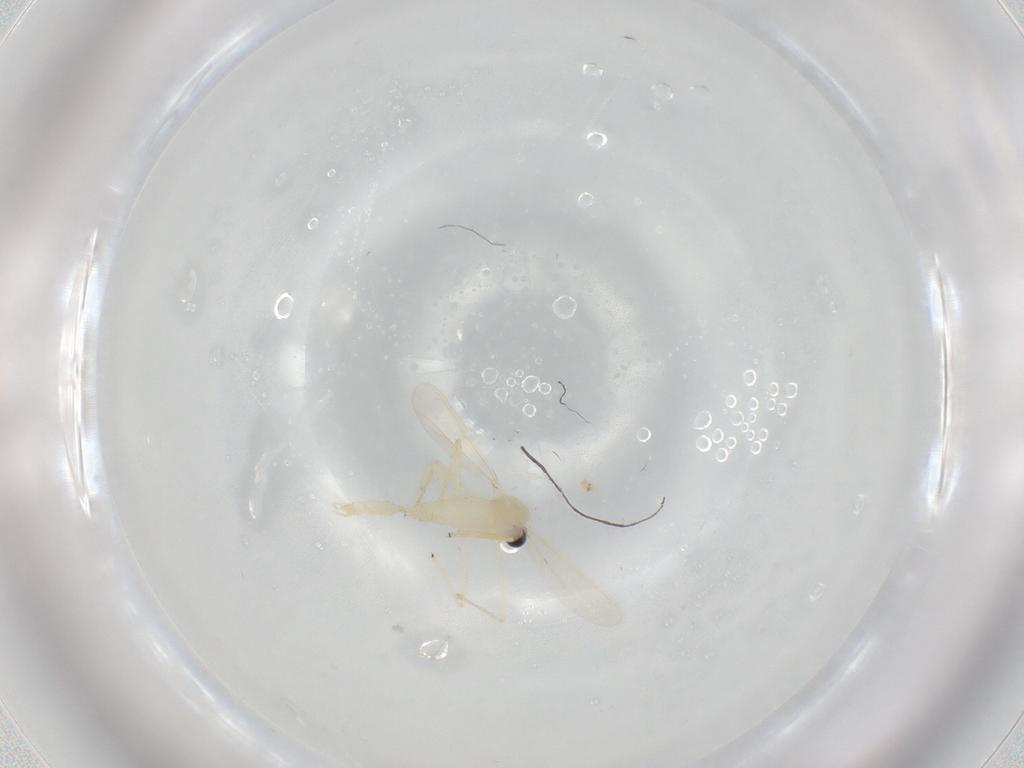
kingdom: Animalia
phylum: Arthropoda
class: Insecta
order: Diptera
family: Chironomidae
